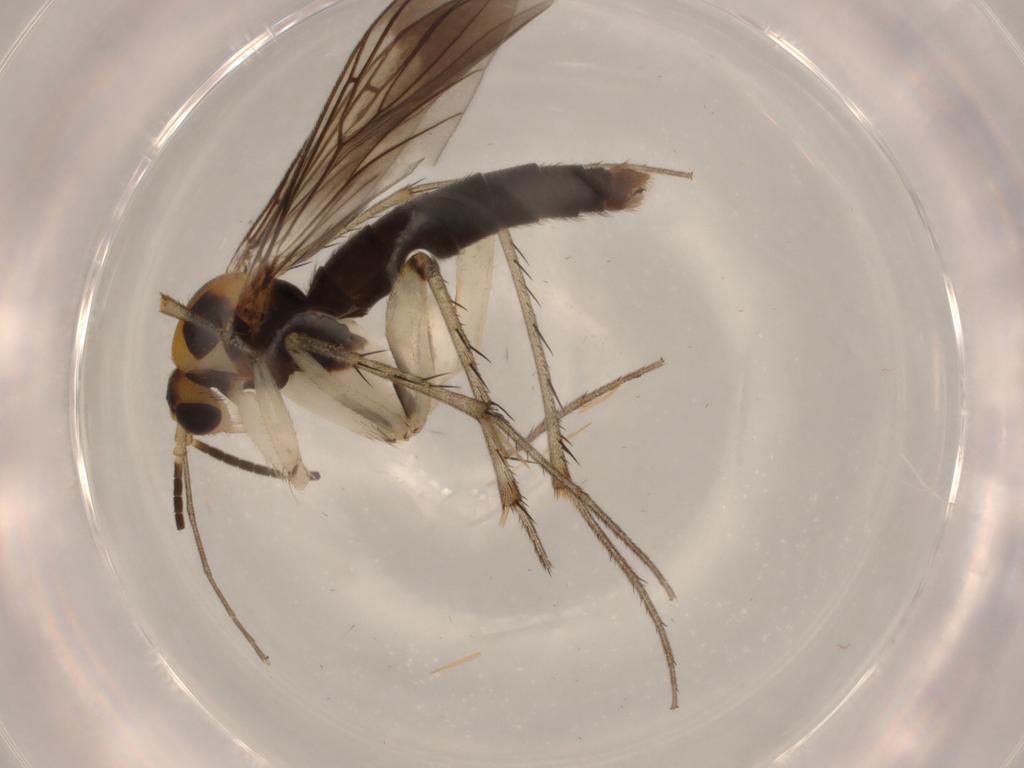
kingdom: Animalia
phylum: Arthropoda
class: Insecta
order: Diptera
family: Cecidomyiidae
